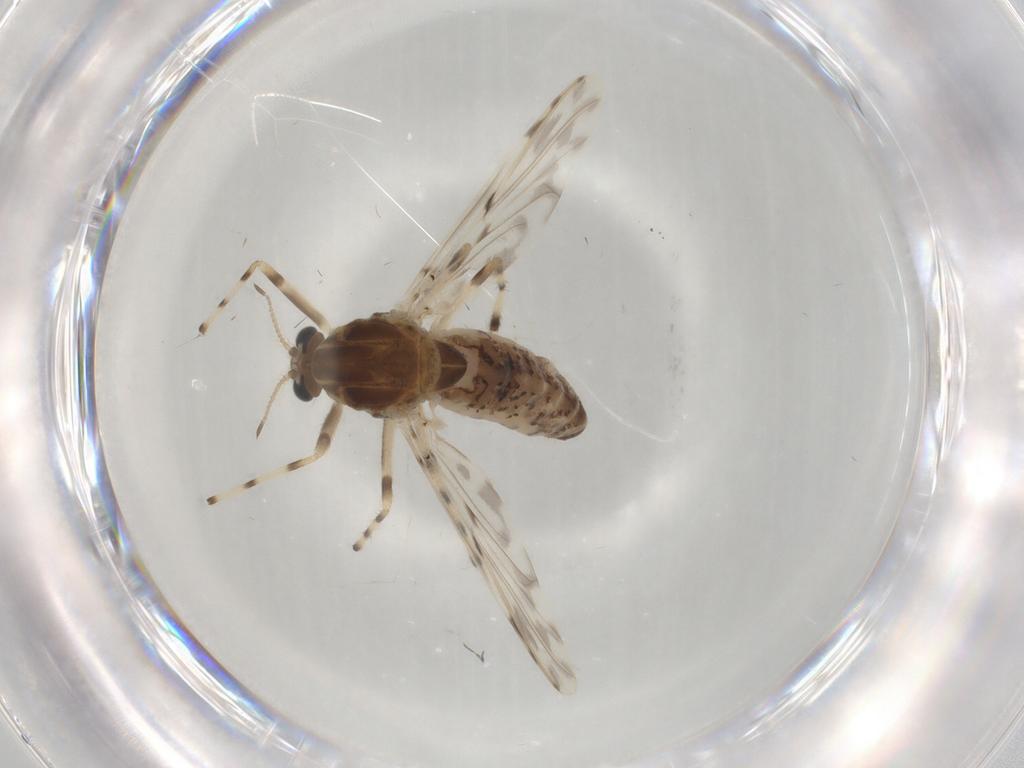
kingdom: Animalia
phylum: Arthropoda
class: Insecta
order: Diptera
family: Chironomidae
